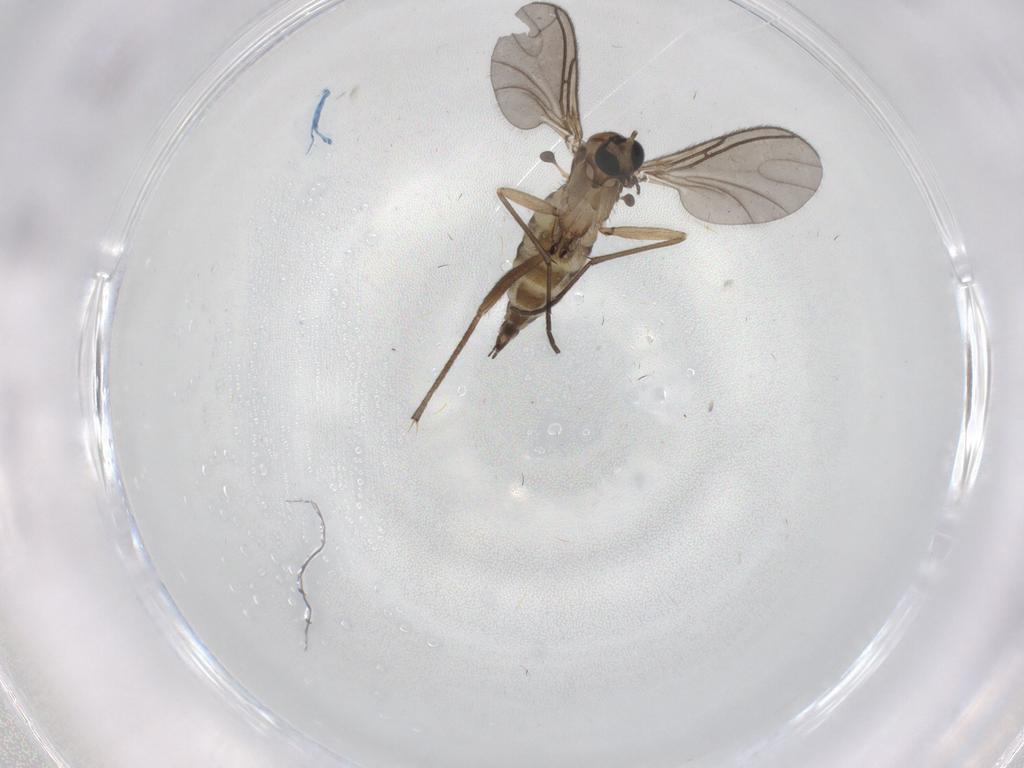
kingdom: Animalia
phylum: Arthropoda
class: Insecta
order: Diptera
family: Sciaridae
